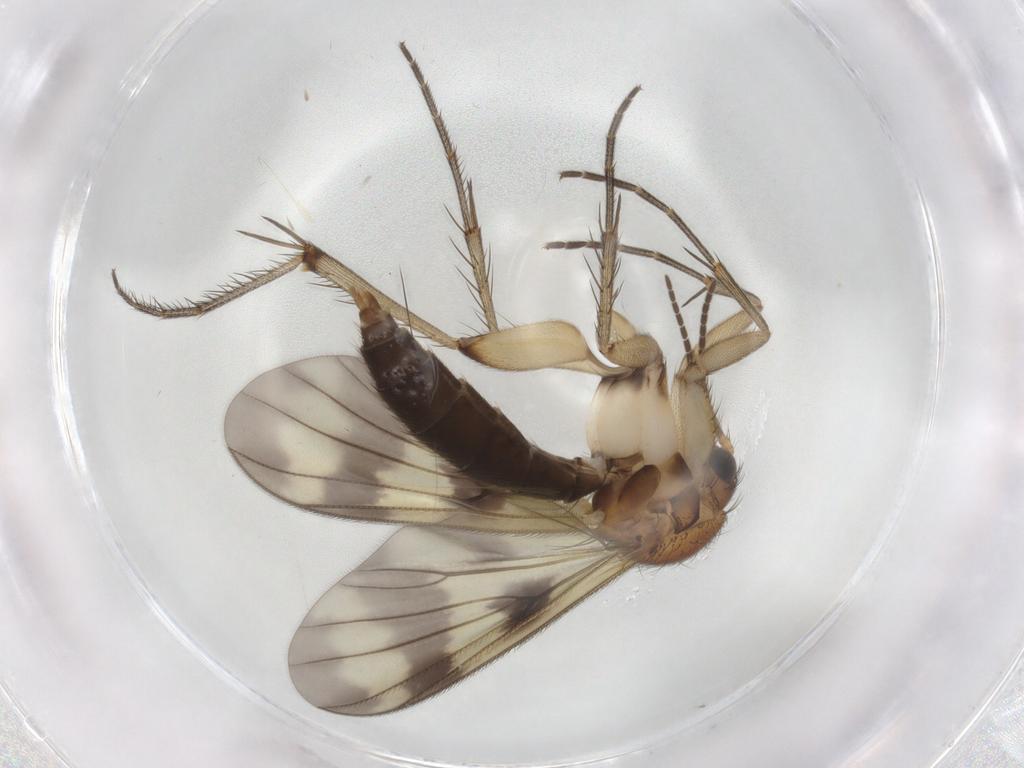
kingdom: Animalia
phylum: Arthropoda
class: Insecta
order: Diptera
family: Mycetophilidae
